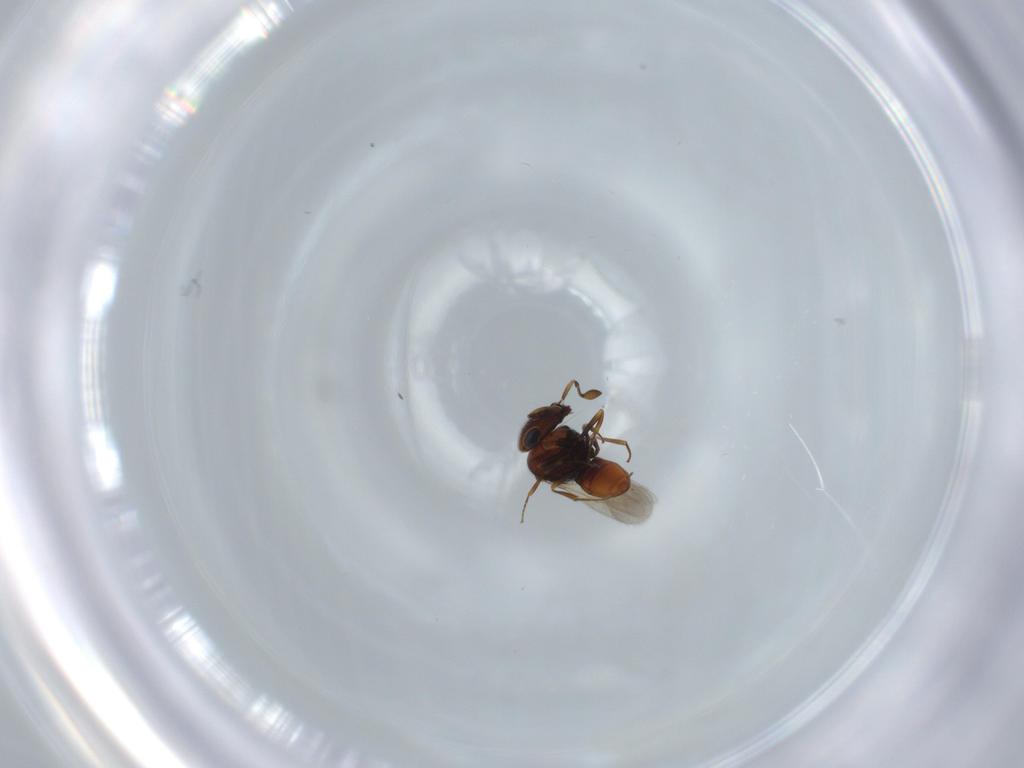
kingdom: Animalia
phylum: Arthropoda
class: Insecta
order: Hymenoptera
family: Scelionidae
